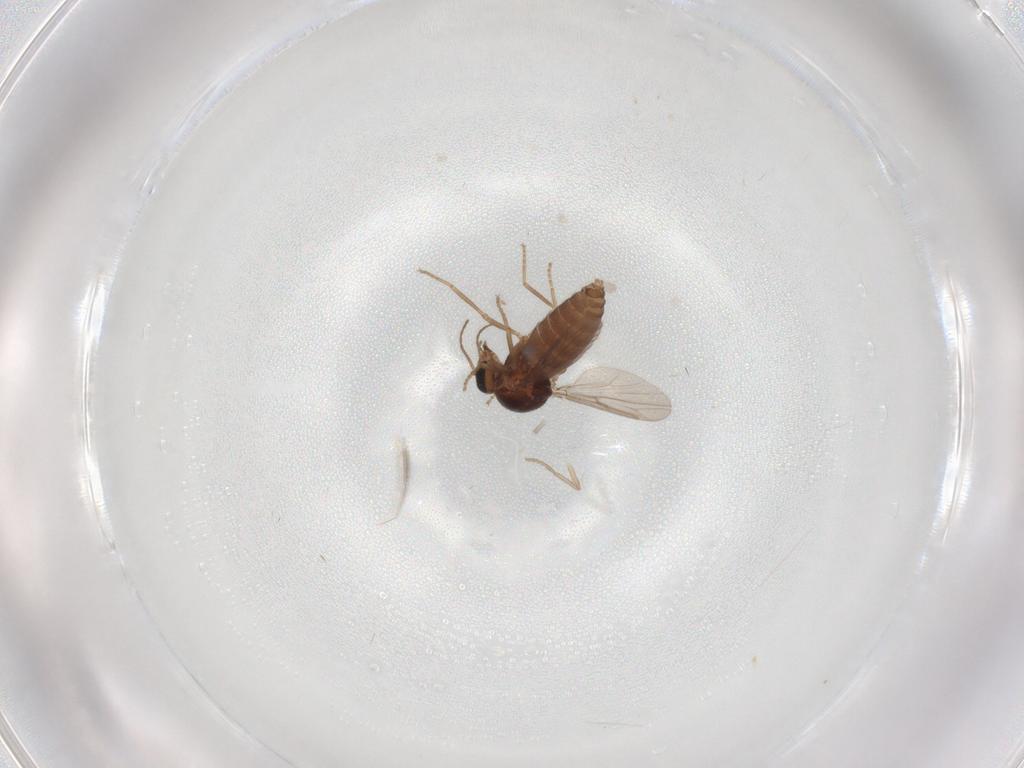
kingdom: Animalia
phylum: Arthropoda
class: Insecta
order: Diptera
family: Ceratopogonidae
